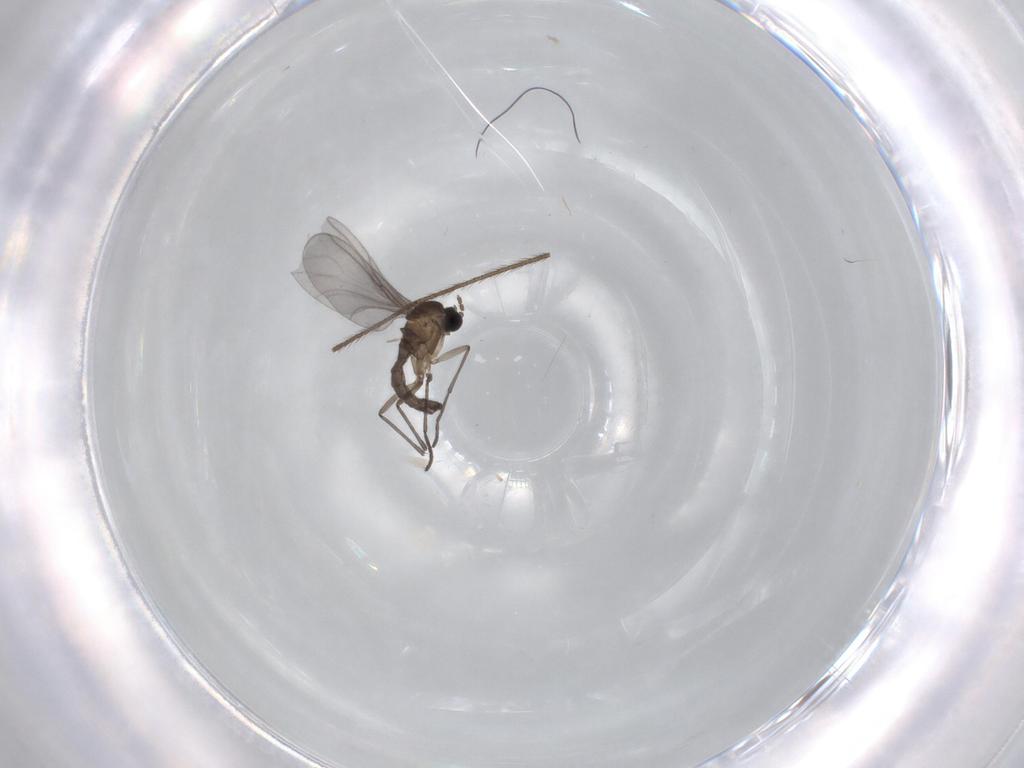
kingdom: Animalia
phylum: Arthropoda
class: Insecta
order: Diptera
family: Sciaridae
